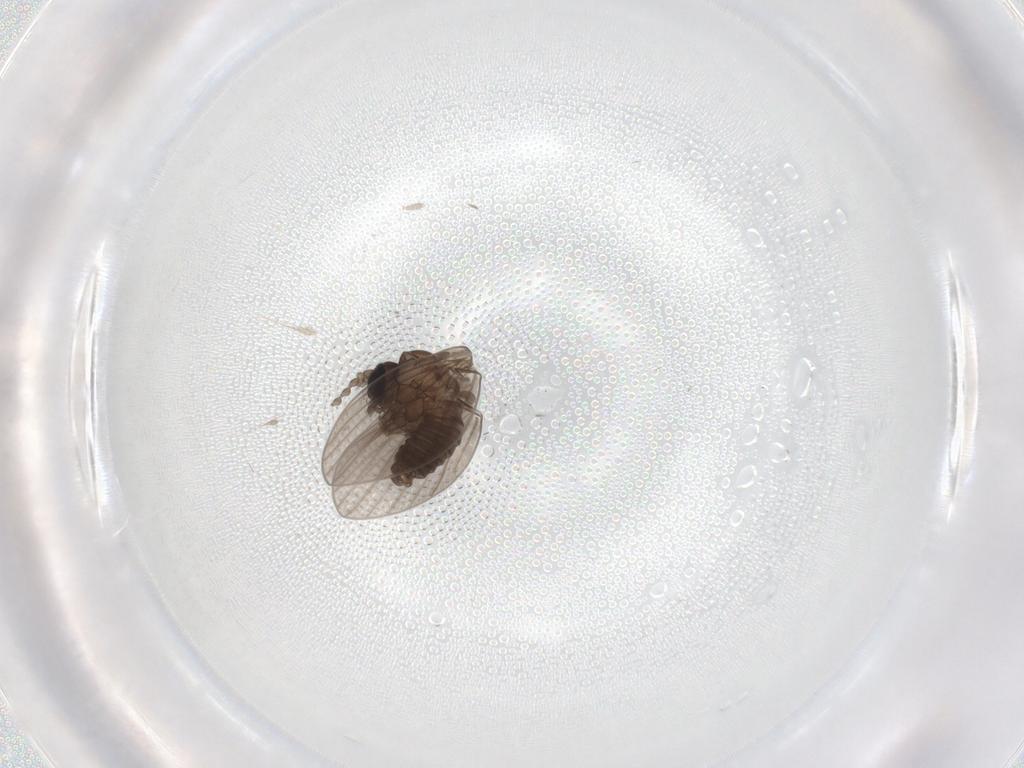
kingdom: Animalia
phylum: Arthropoda
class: Insecta
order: Diptera
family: Psychodidae
